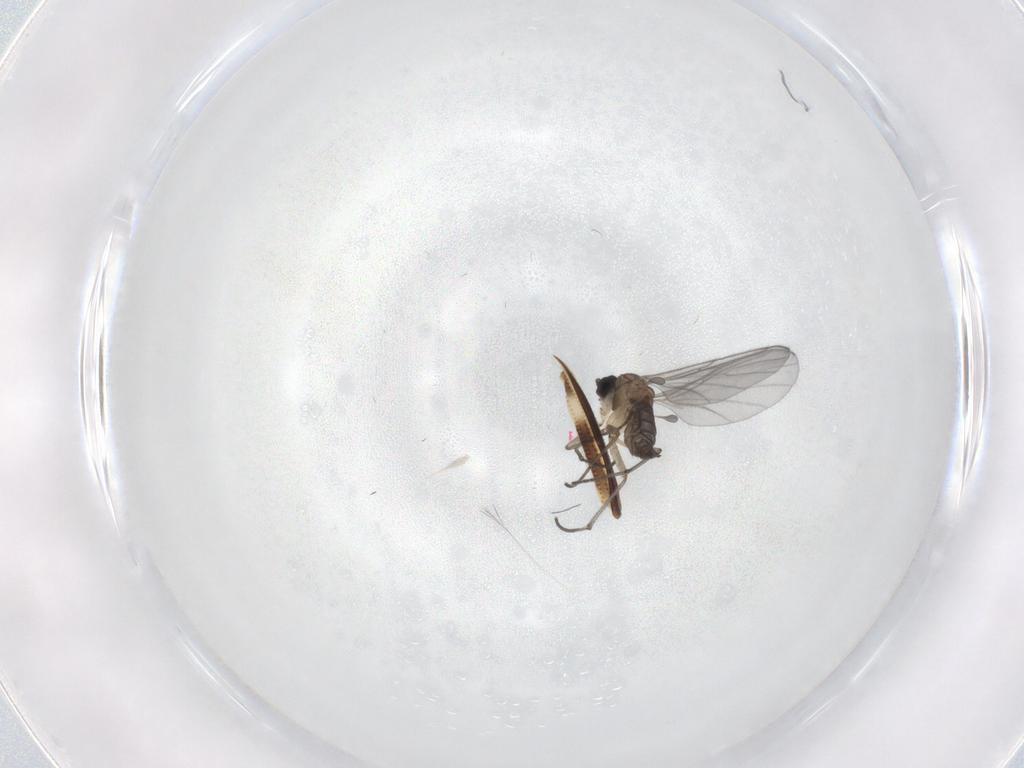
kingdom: Animalia
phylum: Arthropoda
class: Insecta
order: Diptera
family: Sciaridae
